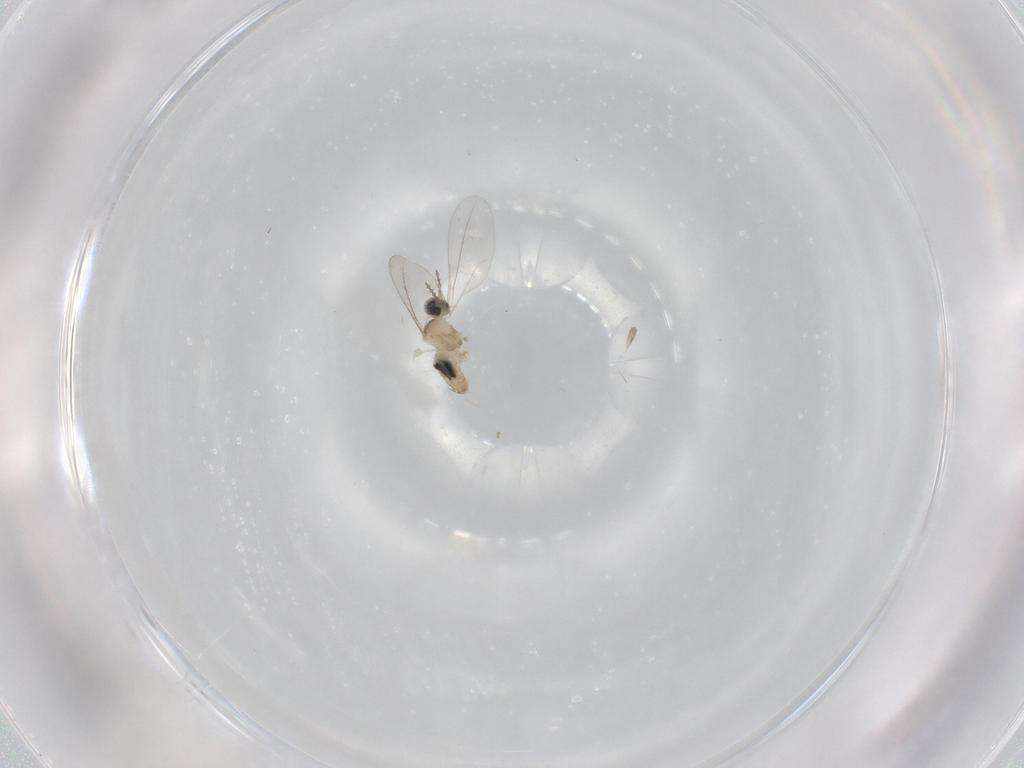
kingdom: Animalia
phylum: Arthropoda
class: Insecta
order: Diptera
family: Cecidomyiidae
